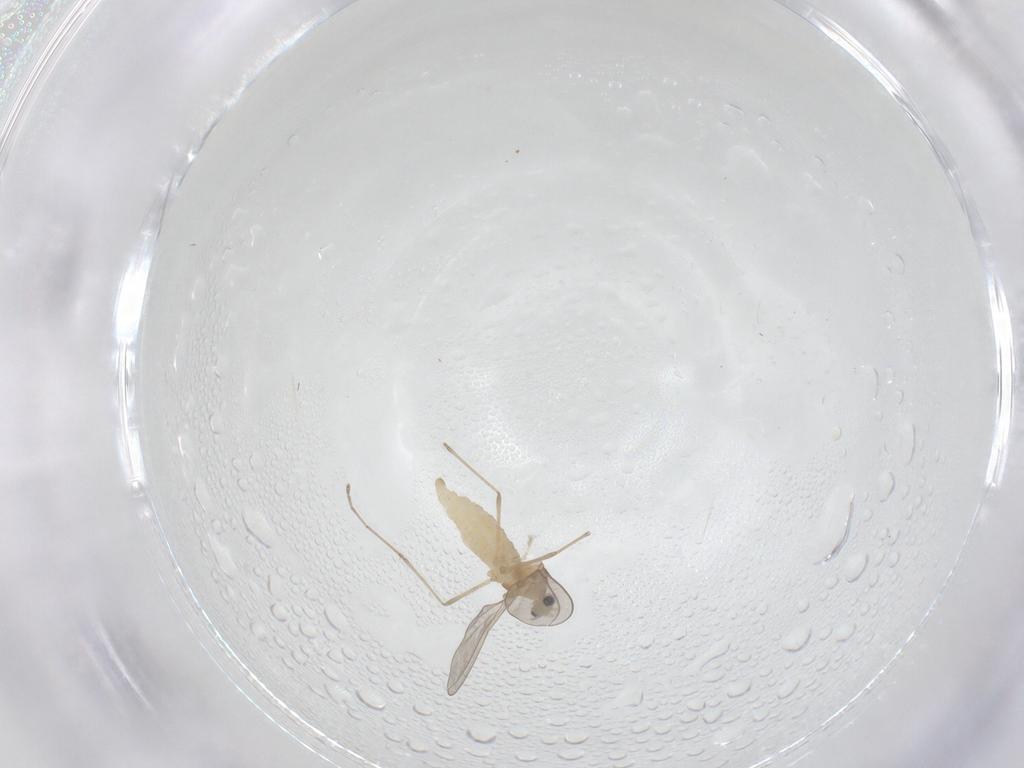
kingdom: Animalia
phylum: Arthropoda
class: Insecta
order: Diptera
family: Cecidomyiidae
